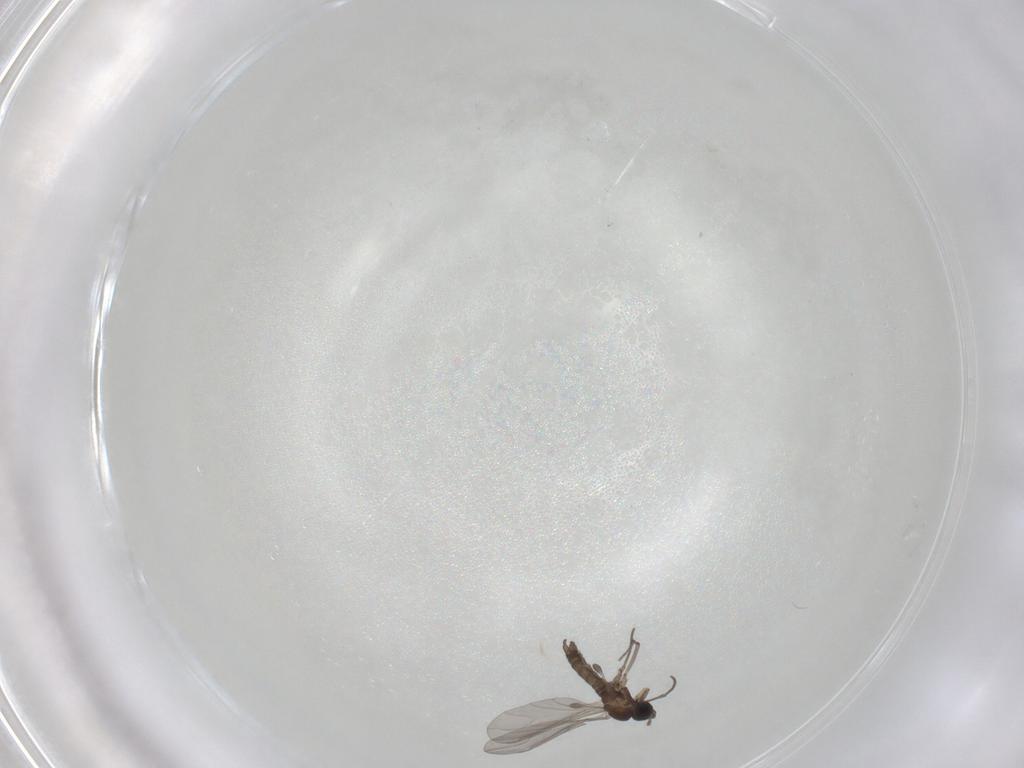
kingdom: Animalia
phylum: Arthropoda
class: Insecta
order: Diptera
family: Sciaridae
